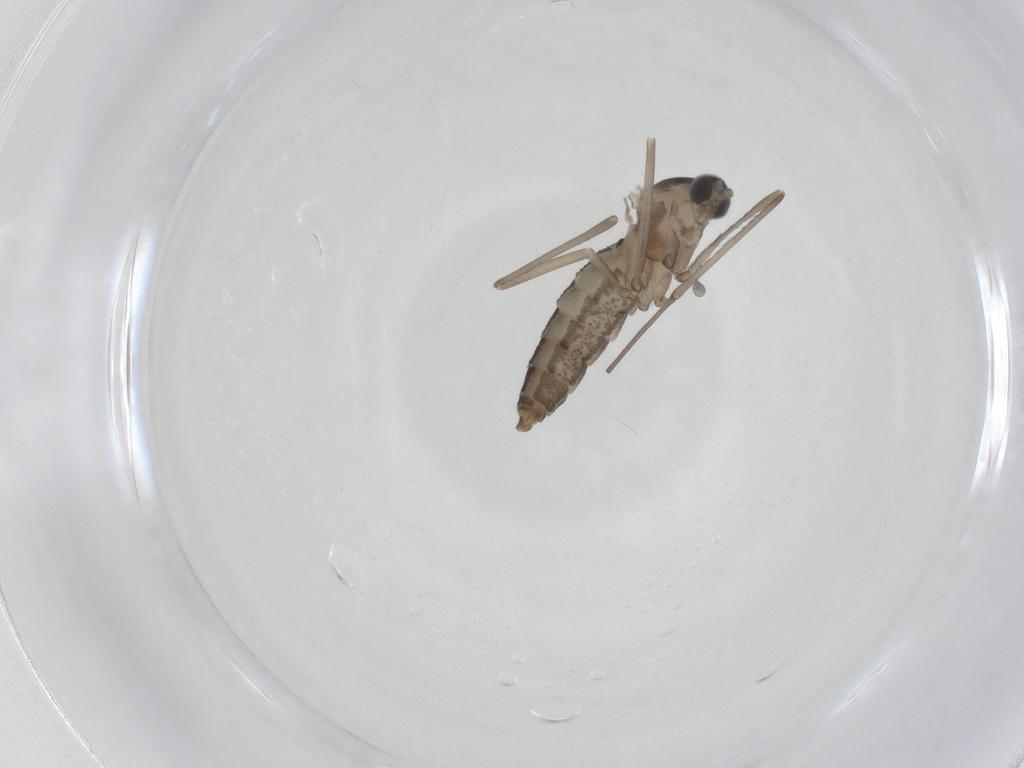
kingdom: Animalia
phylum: Arthropoda
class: Insecta
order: Diptera
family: Cecidomyiidae
